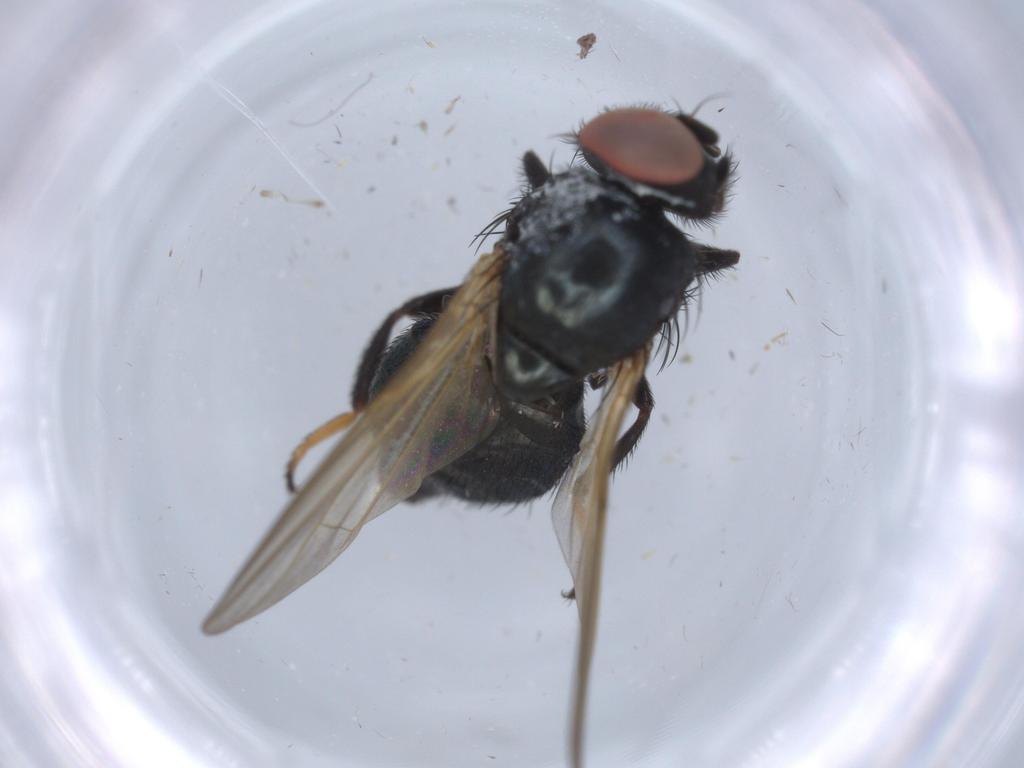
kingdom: Animalia
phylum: Arthropoda
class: Insecta
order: Diptera
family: Lonchaeidae
